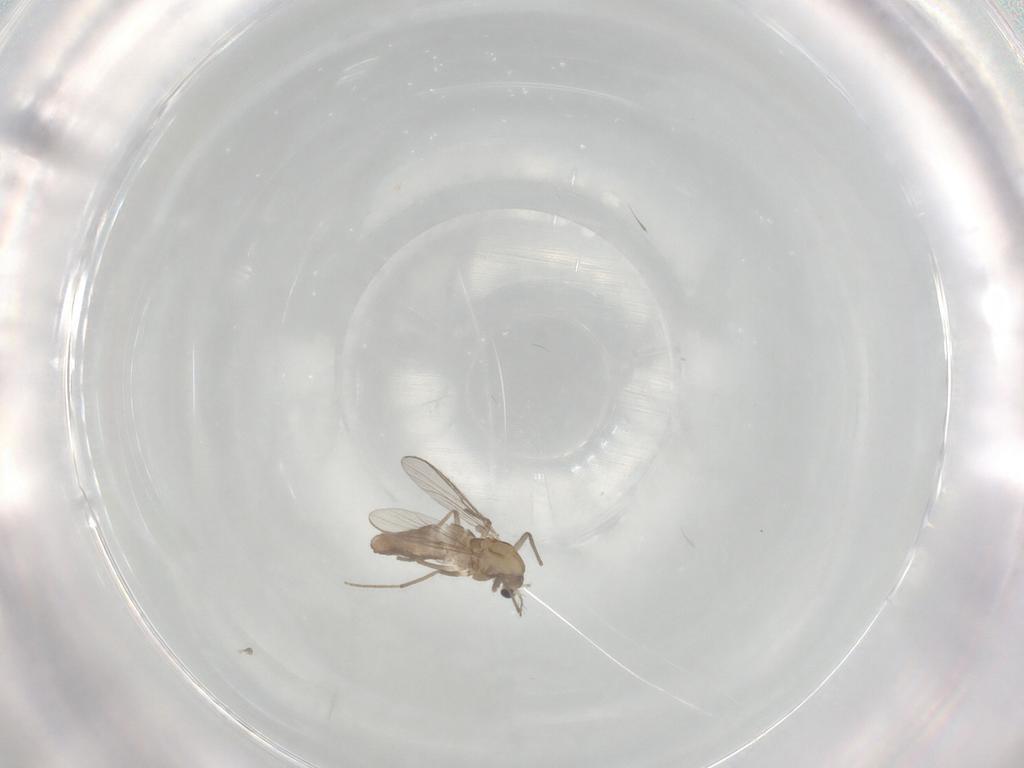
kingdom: Animalia
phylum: Arthropoda
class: Insecta
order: Diptera
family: Chironomidae
